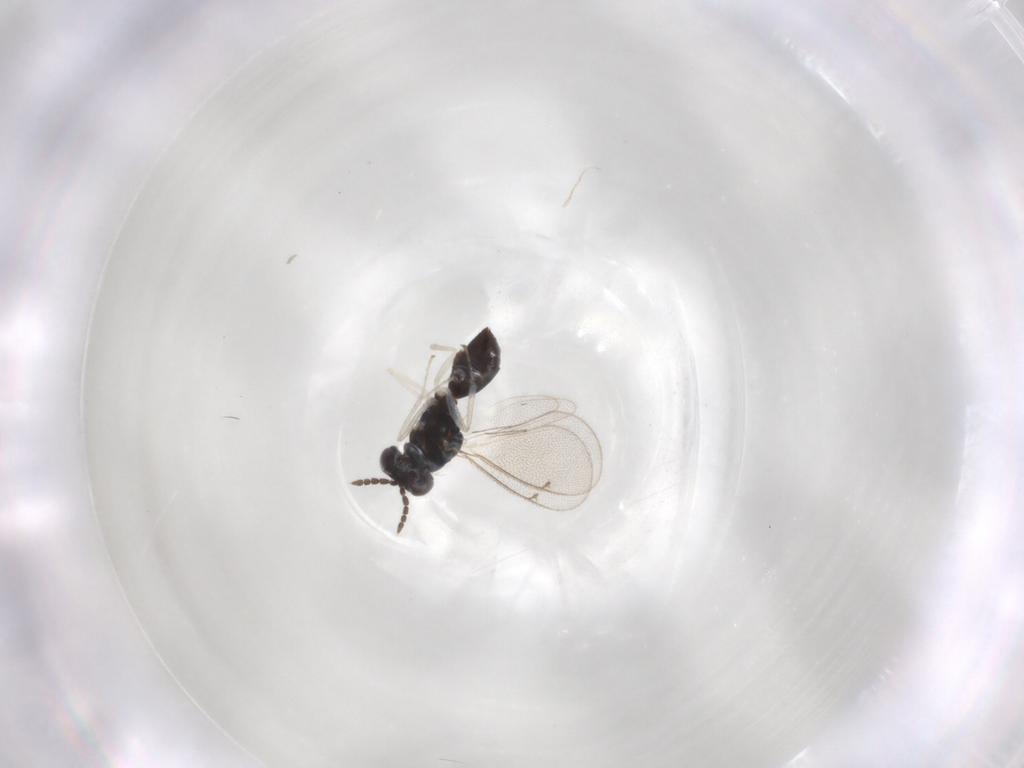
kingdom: Animalia
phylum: Arthropoda
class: Insecta
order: Hymenoptera
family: Eulophidae
